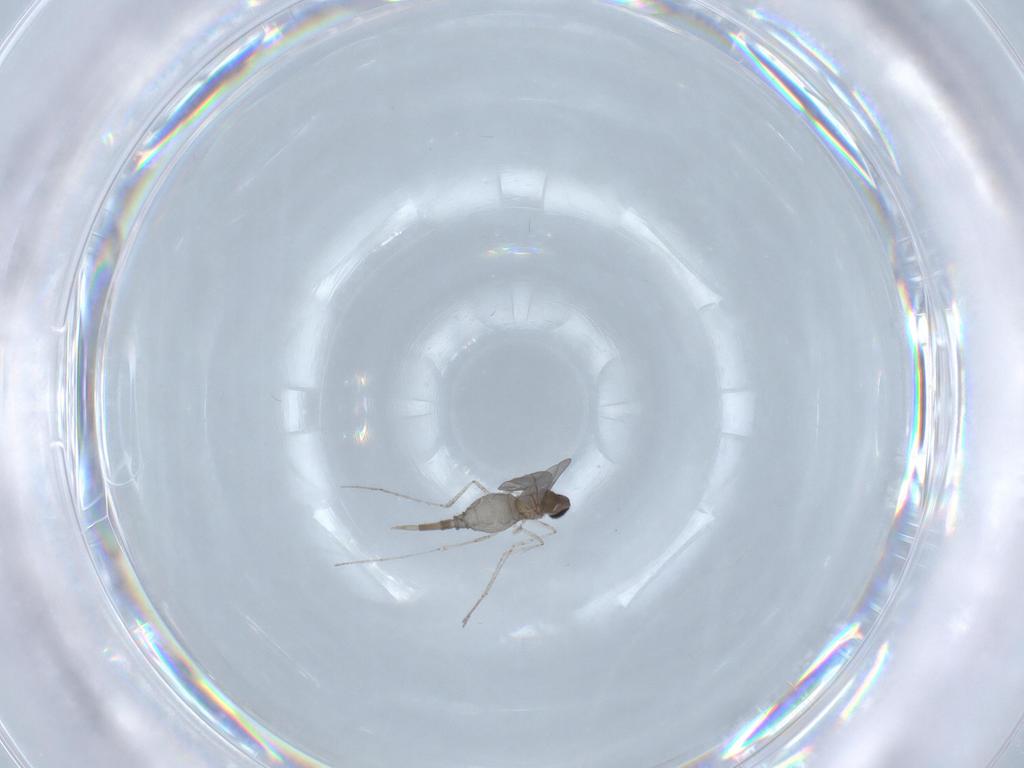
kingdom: Animalia
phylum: Arthropoda
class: Insecta
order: Diptera
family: Cecidomyiidae
